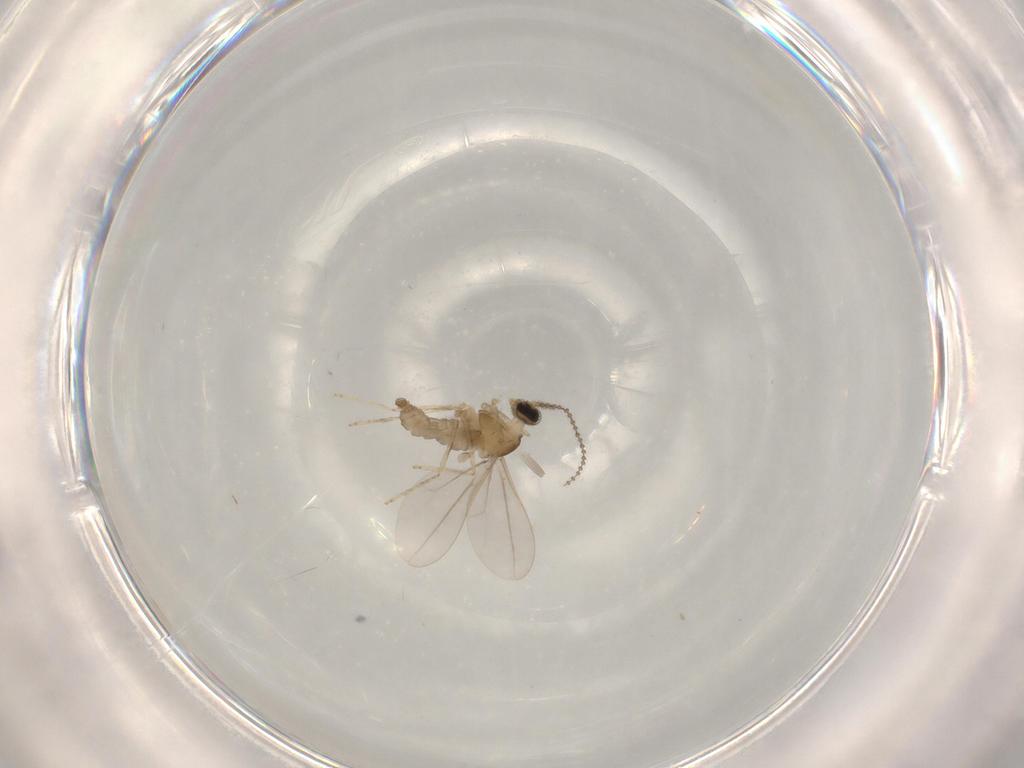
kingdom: Animalia
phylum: Arthropoda
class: Insecta
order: Diptera
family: Cecidomyiidae
